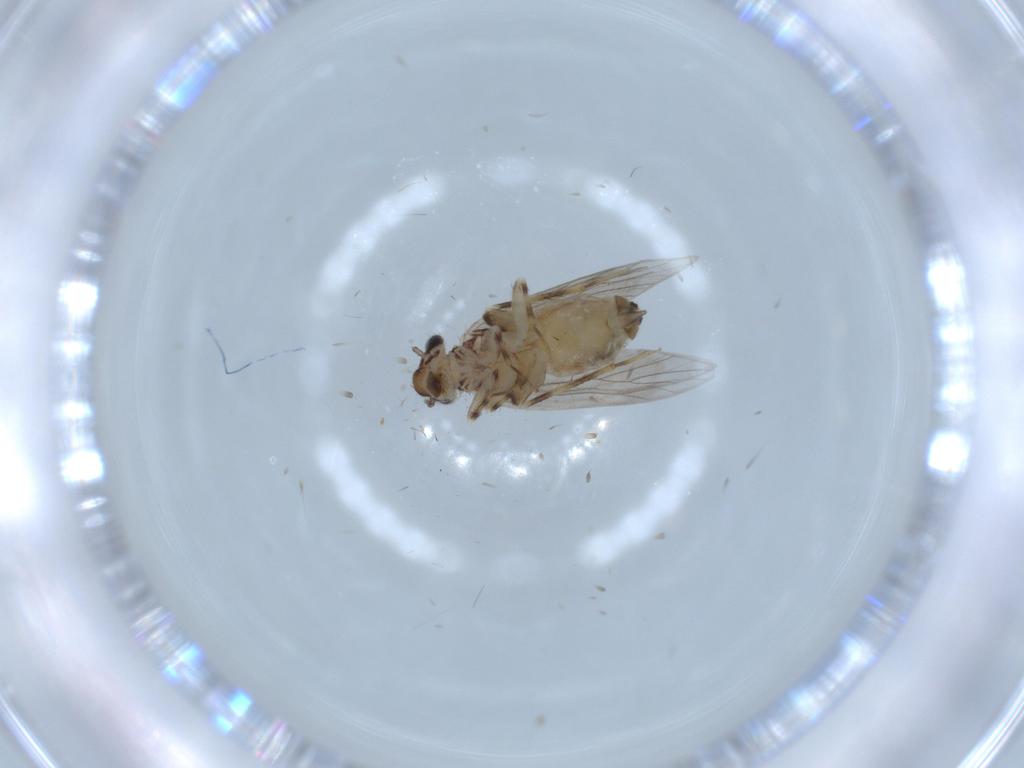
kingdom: Animalia
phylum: Arthropoda
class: Insecta
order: Psocodea
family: Lepidopsocidae
